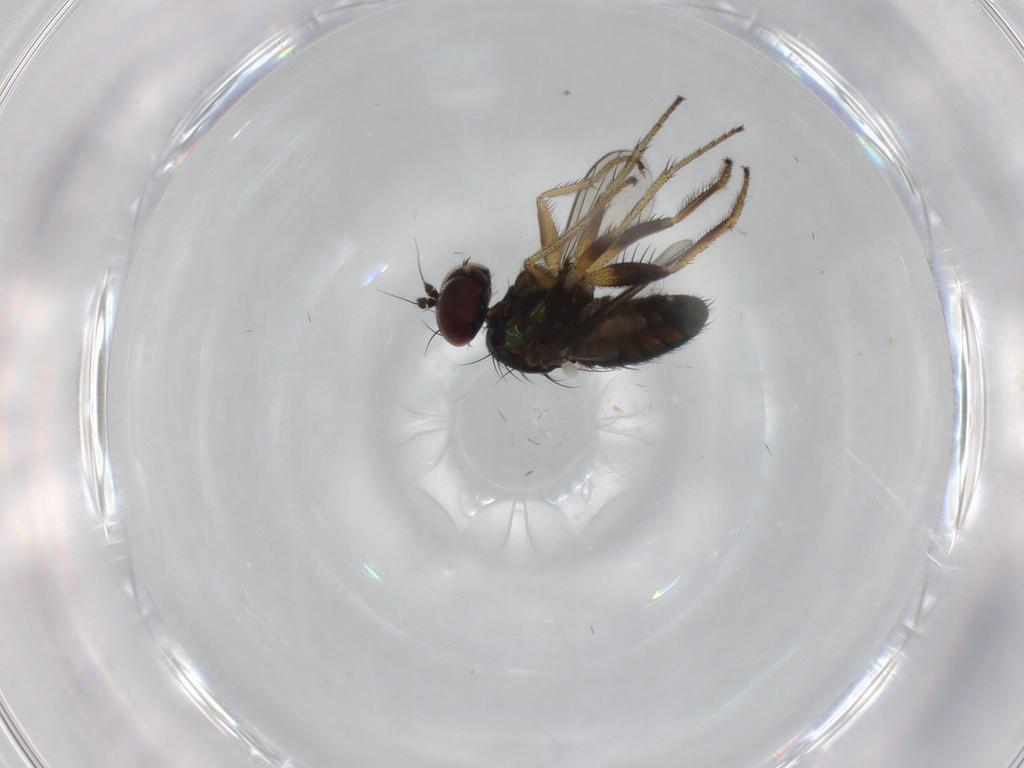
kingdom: Animalia
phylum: Arthropoda
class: Insecta
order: Diptera
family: Dolichopodidae
